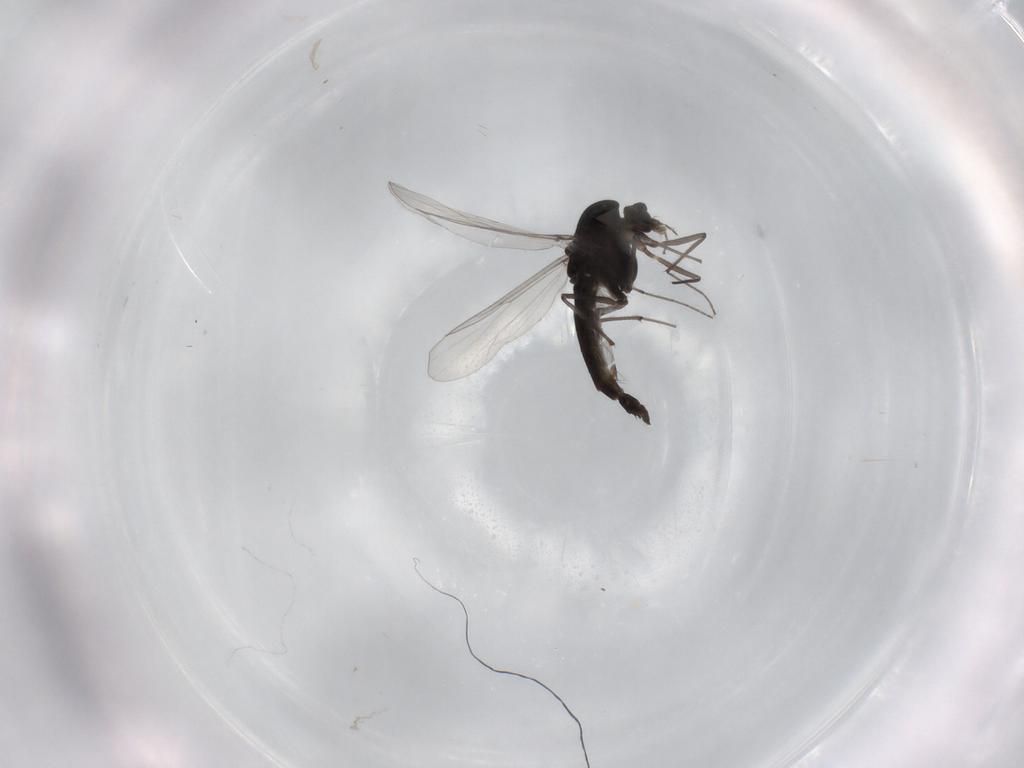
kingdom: Animalia
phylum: Arthropoda
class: Insecta
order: Diptera
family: Chironomidae
